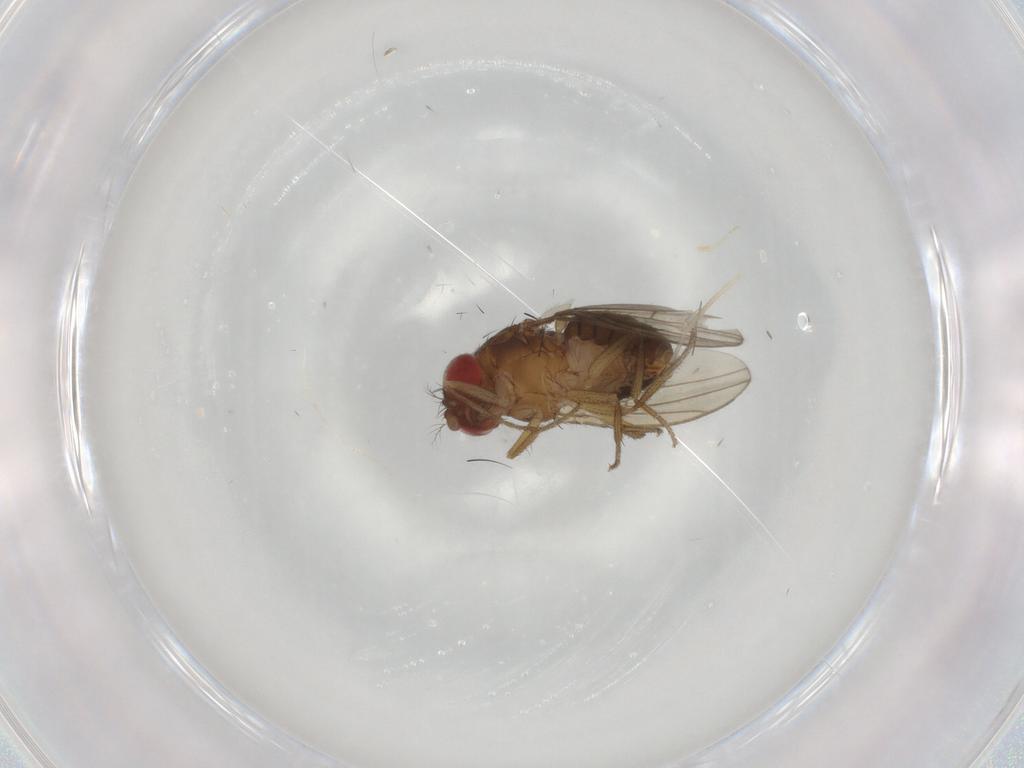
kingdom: Animalia
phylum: Arthropoda
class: Insecta
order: Diptera
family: Drosophilidae
